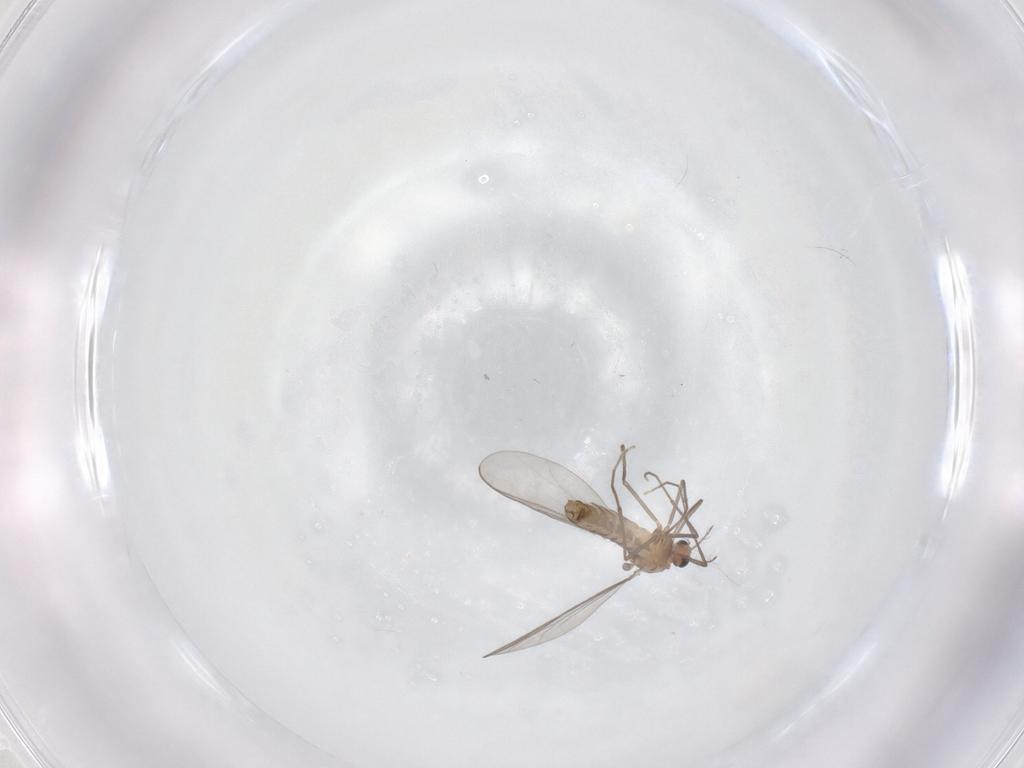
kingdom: Animalia
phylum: Arthropoda
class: Insecta
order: Diptera
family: Chironomidae
